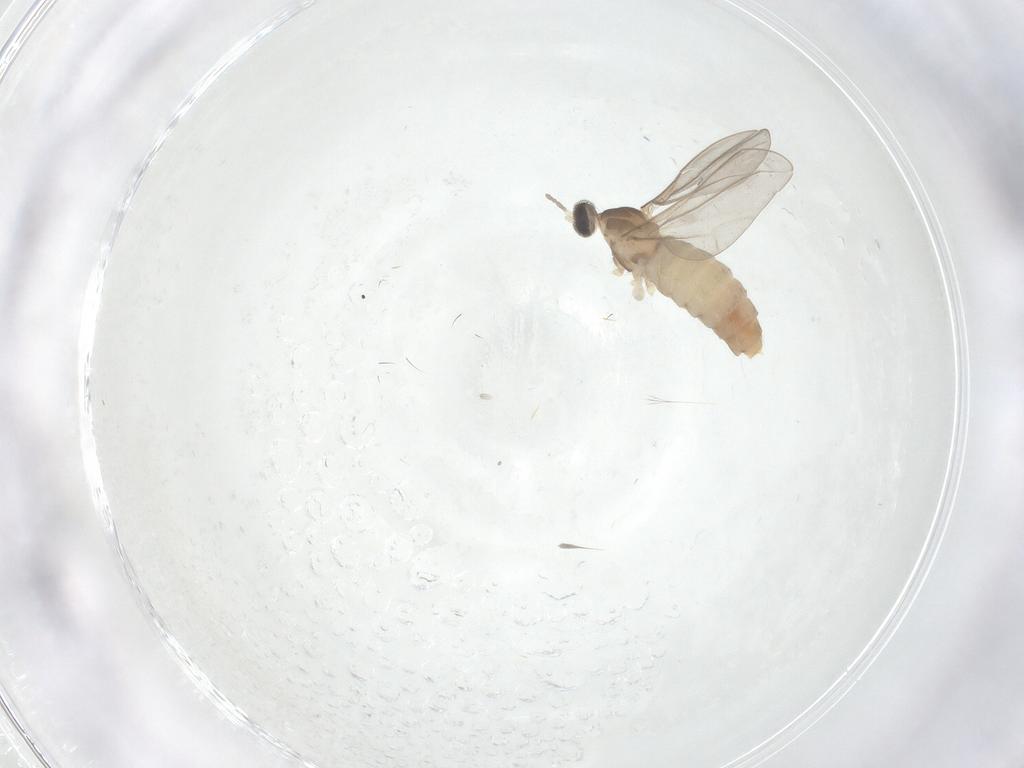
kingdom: Animalia
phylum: Arthropoda
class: Insecta
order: Diptera
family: Cecidomyiidae
